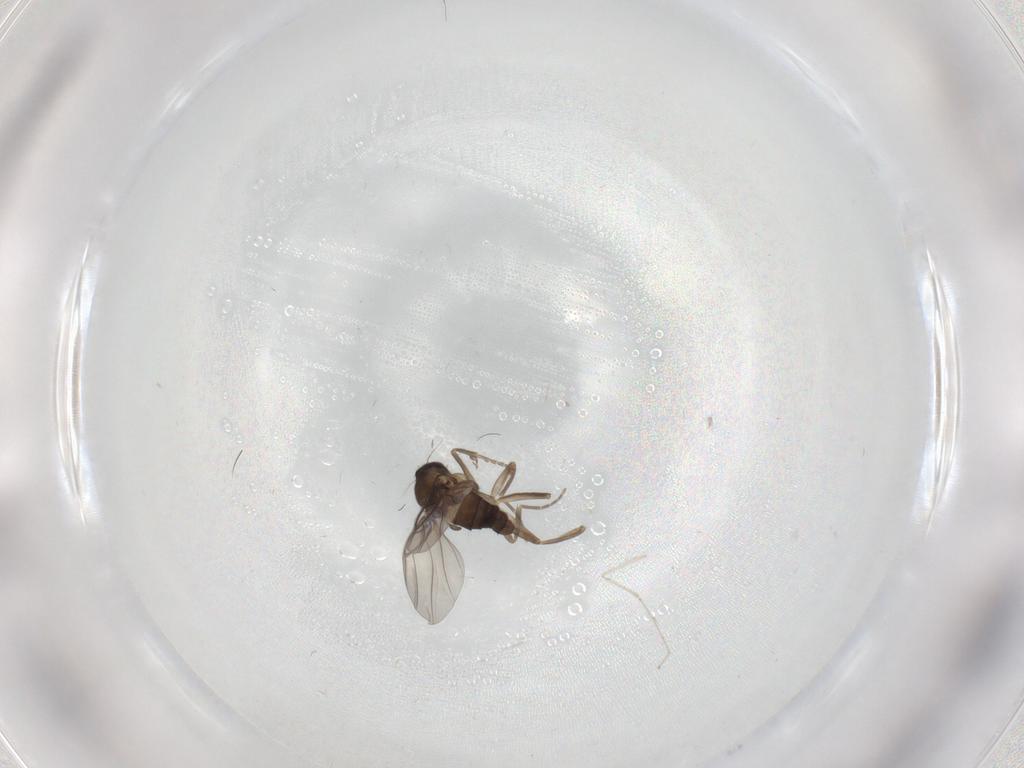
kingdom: Animalia
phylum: Arthropoda
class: Insecta
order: Diptera
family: Phoridae
